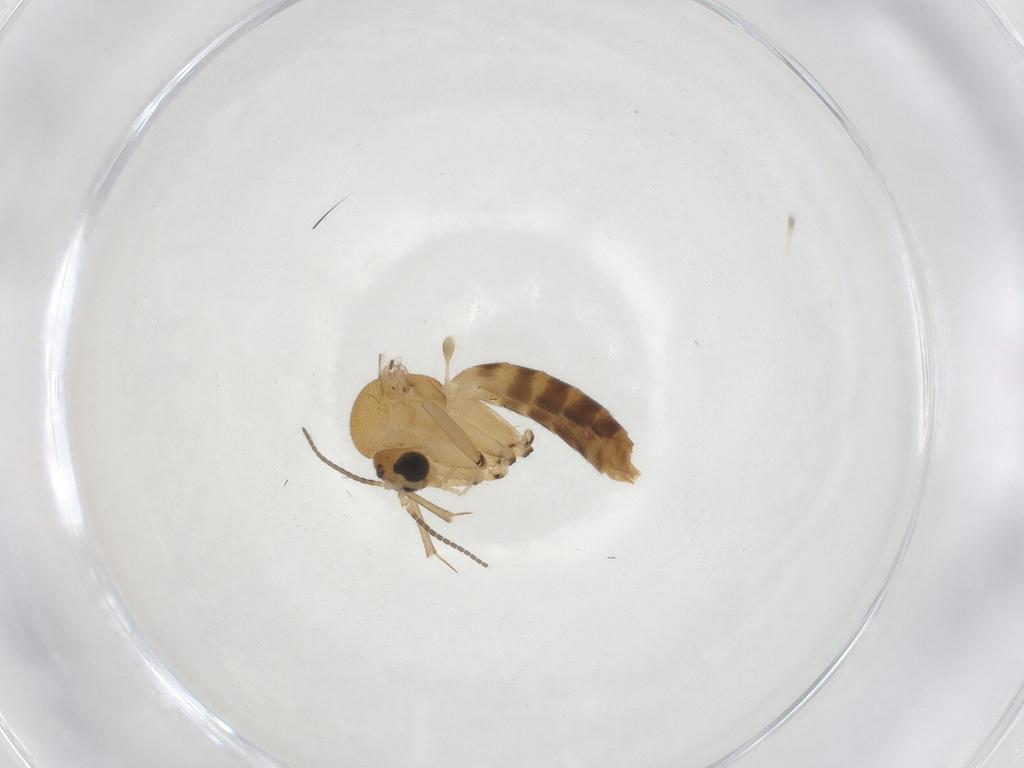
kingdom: Animalia
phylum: Arthropoda
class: Insecta
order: Diptera
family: Mycetophilidae
